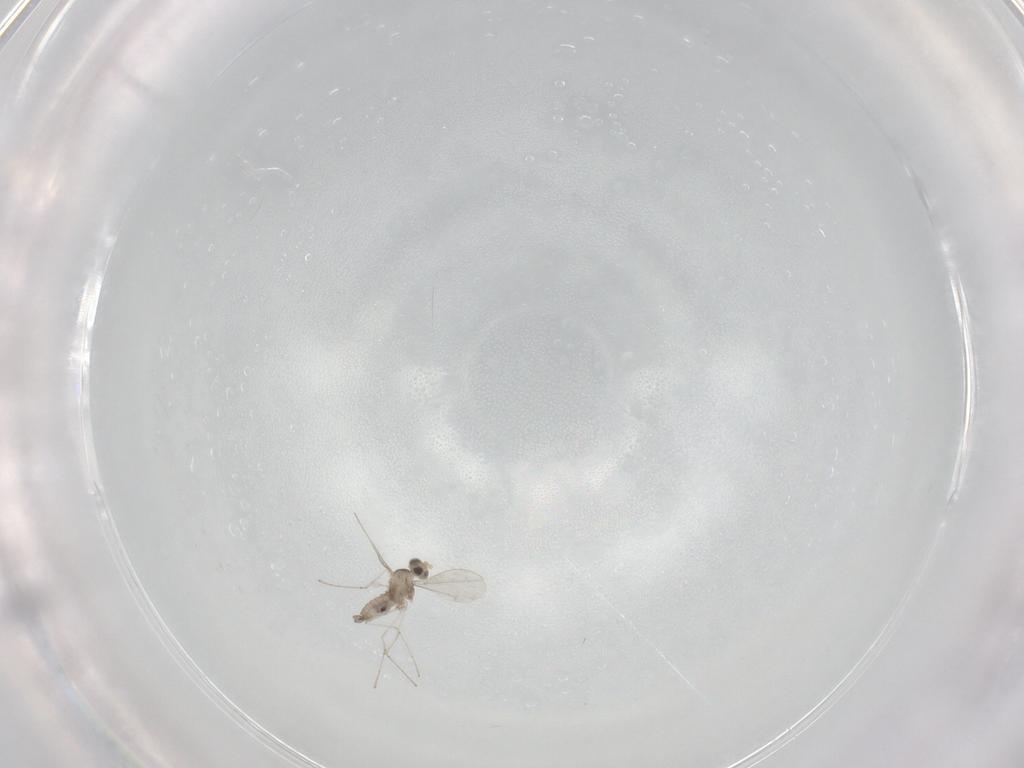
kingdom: Animalia
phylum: Arthropoda
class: Insecta
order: Diptera
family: Cecidomyiidae
